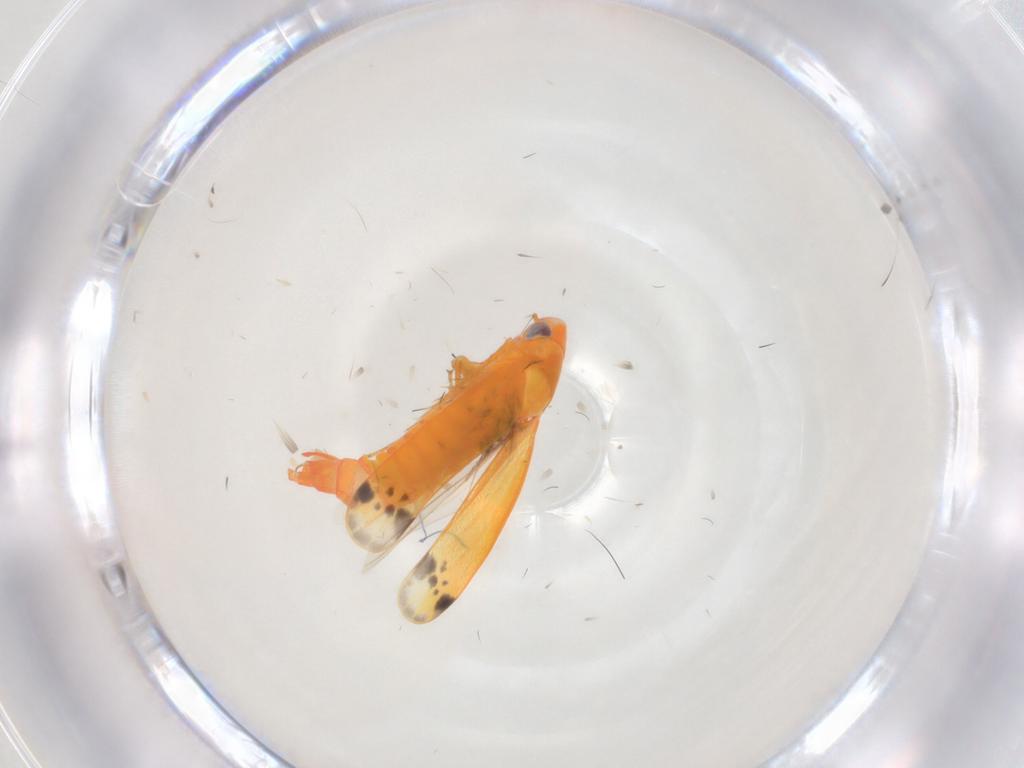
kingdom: Animalia
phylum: Arthropoda
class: Insecta
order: Hemiptera
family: Cicadellidae
